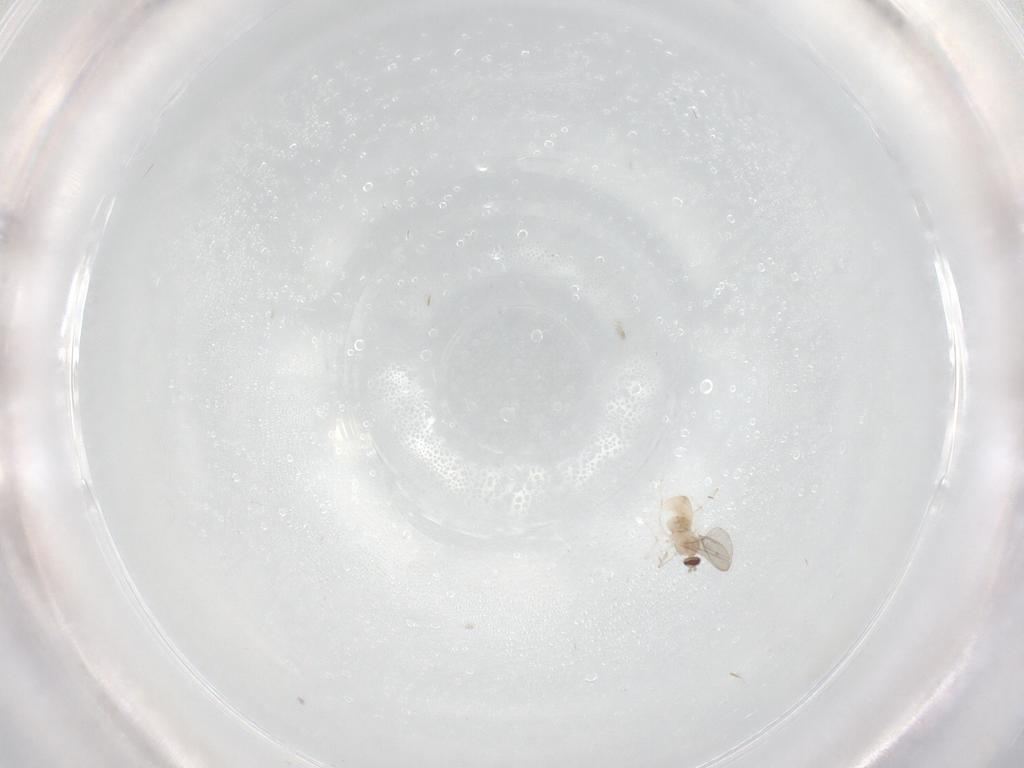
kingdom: Animalia
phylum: Arthropoda
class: Insecta
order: Diptera
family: Cecidomyiidae
